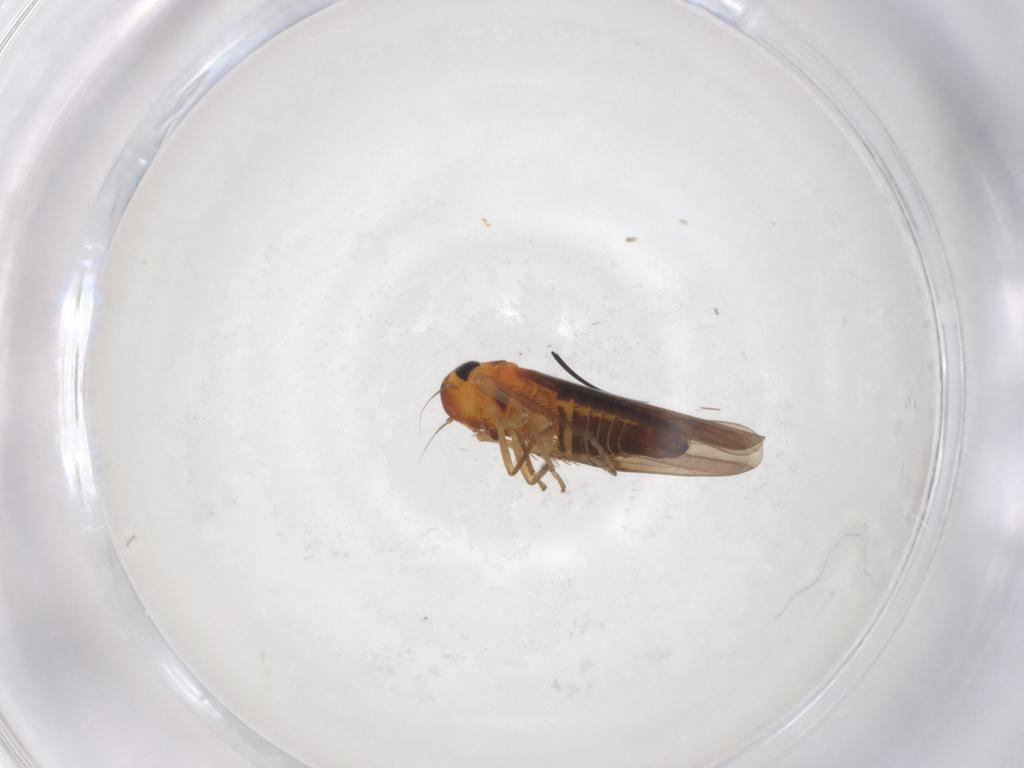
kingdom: Animalia
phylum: Arthropoda
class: Insecta
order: Hemiptera
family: Cicadellidae
